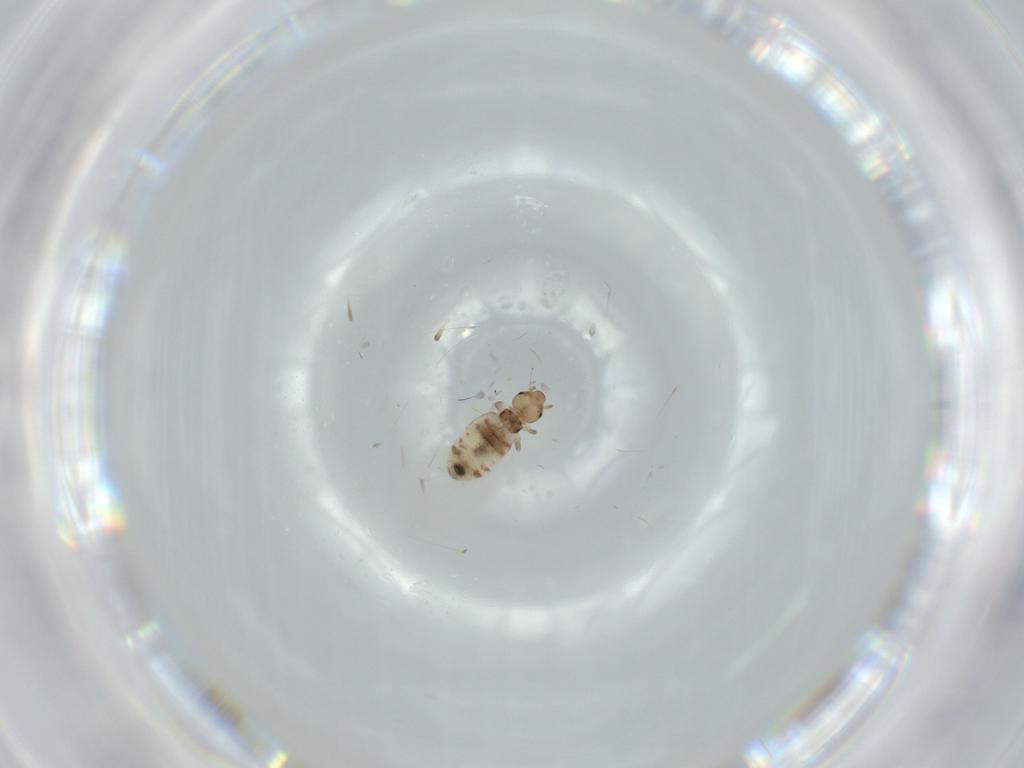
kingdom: Animalia
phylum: Arthropoda
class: Insecta
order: Psocodea
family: Liposcelididae
